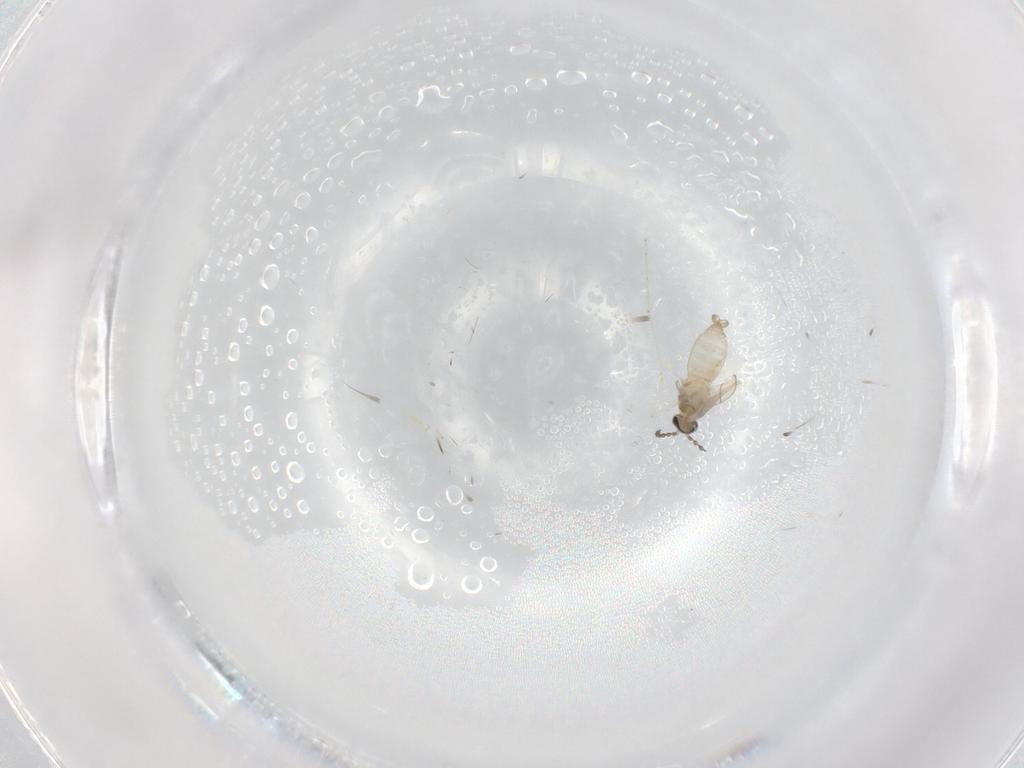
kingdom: Animalia
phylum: Arthropoda
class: Insecta
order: Diptera
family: Cecidomyiidae
